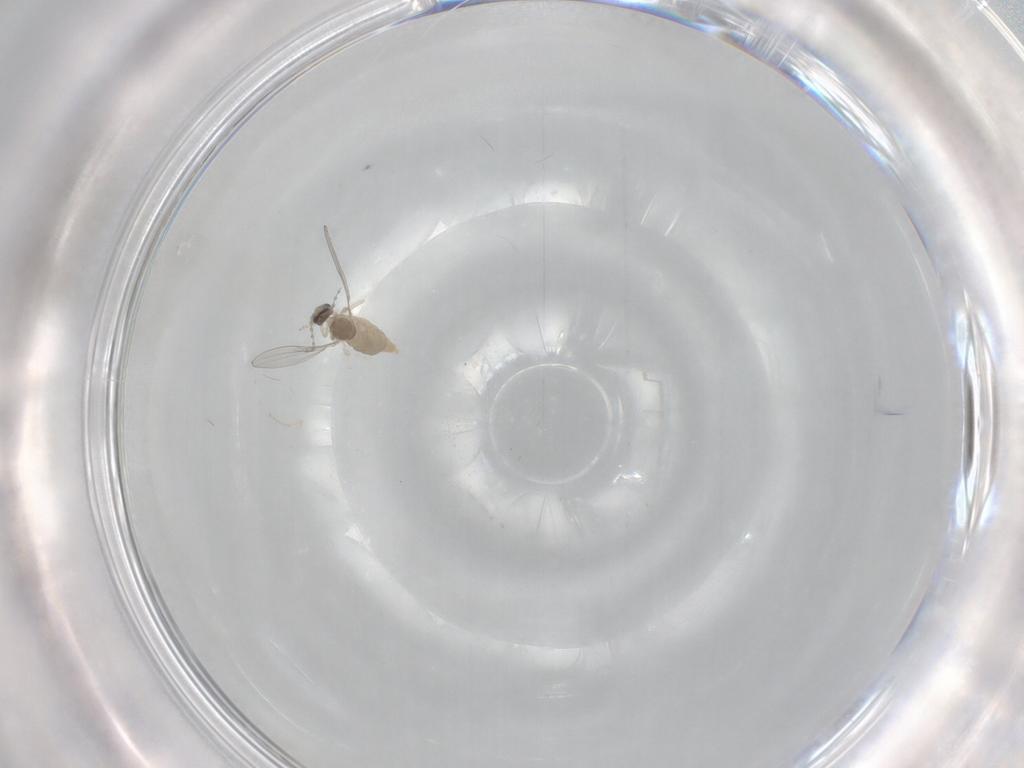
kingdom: Animalia
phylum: Arthropoda
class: Insecta
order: Diptera
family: Cecidomyiidae
